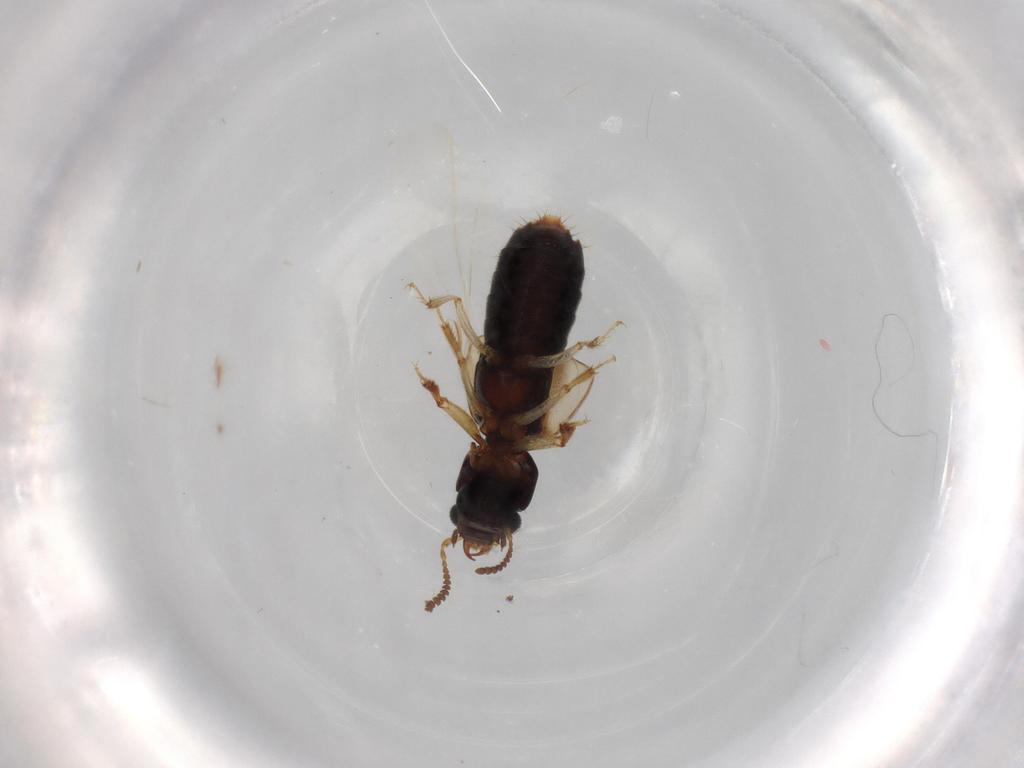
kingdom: Animalia
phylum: Arthropoda
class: Insecta
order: Coleoptera
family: Staphylinidae
